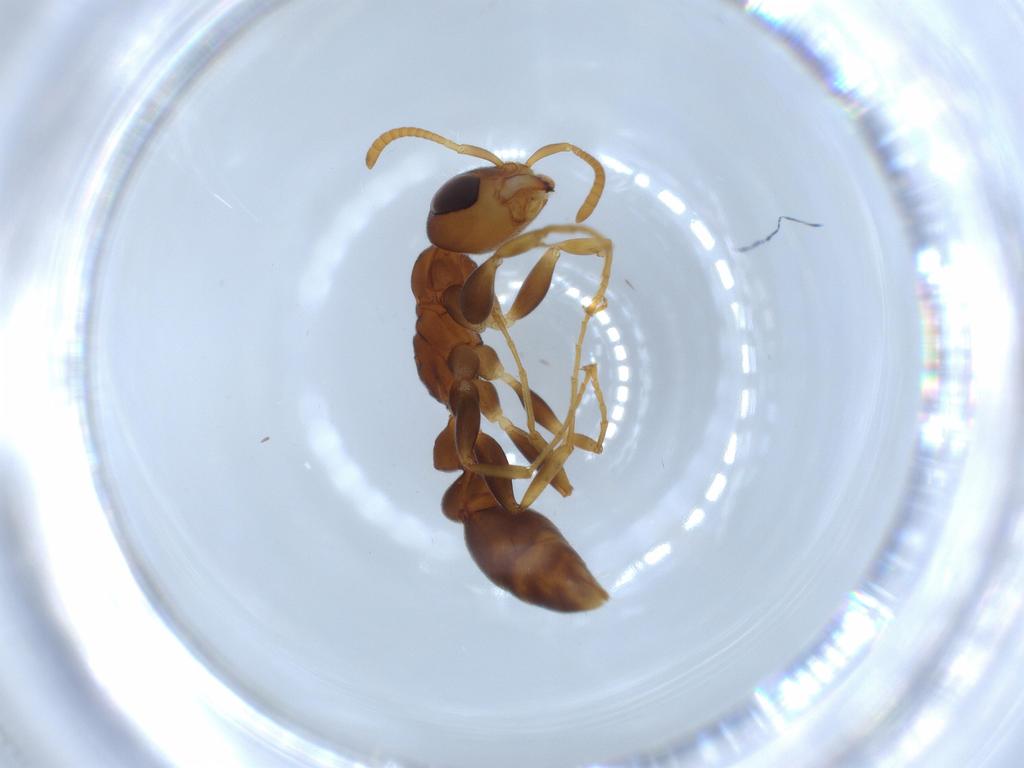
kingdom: Animalia
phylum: Arthropoda
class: Insecta
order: Hymenoptera
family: Formicidae
